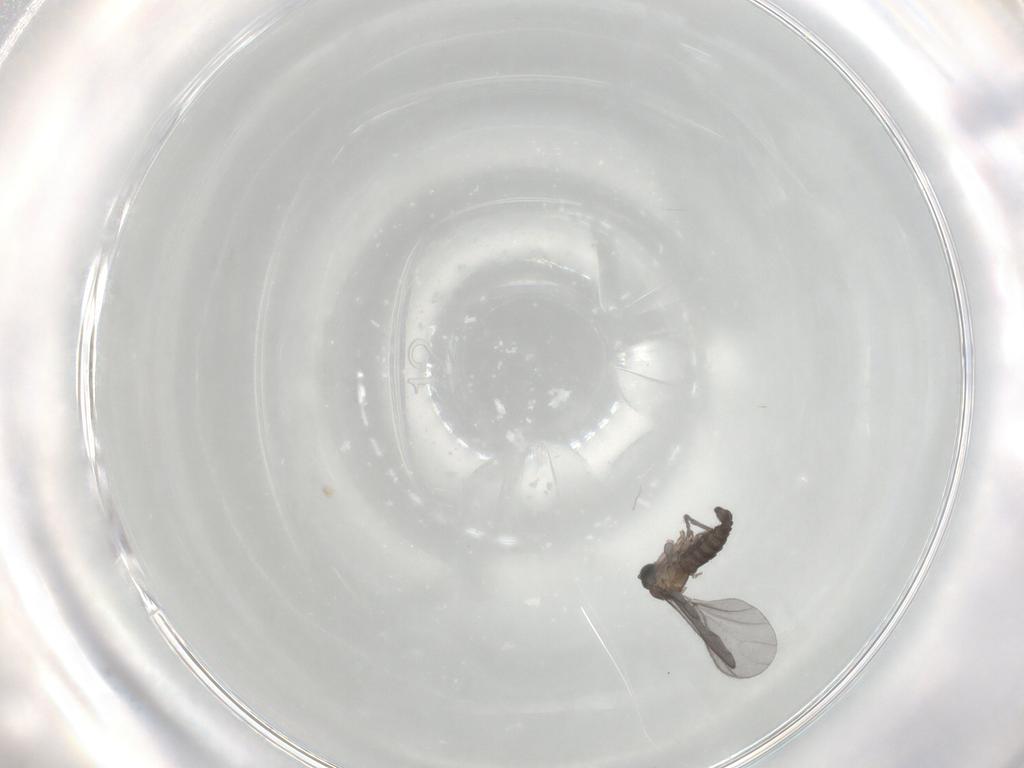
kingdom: Animalia
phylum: Arthropoda
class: Insecta
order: Diptera
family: Sciaridae
